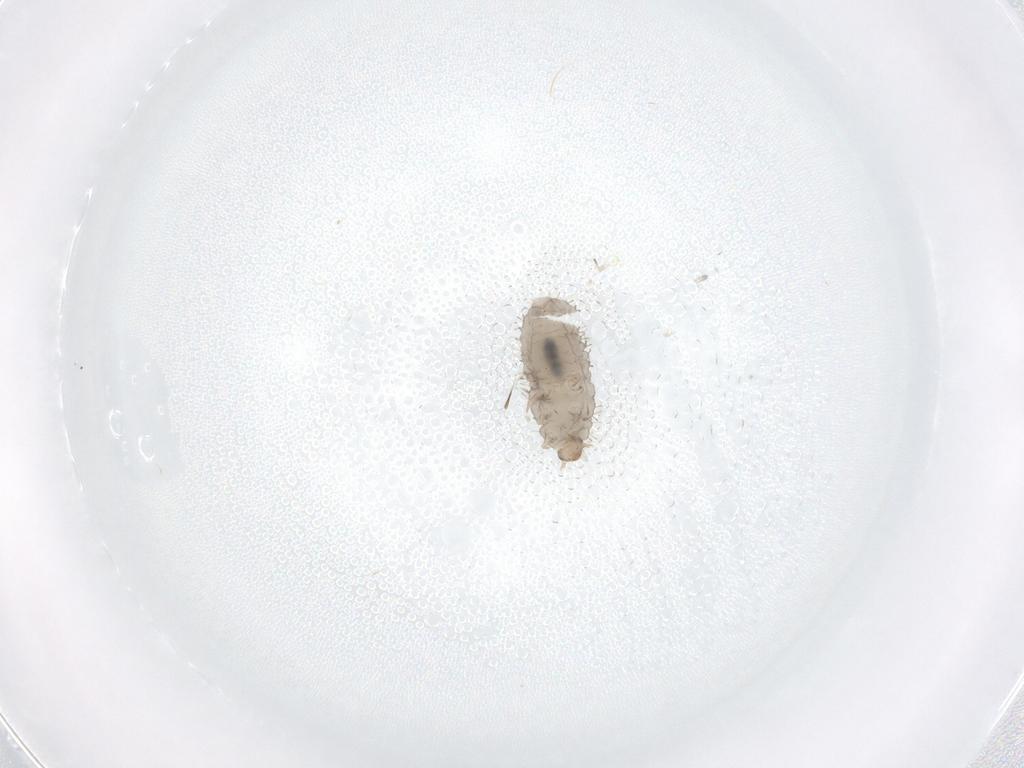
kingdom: Animalia
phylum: Arthropoda
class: Insecta
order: Coleoptera
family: Corylophidae
